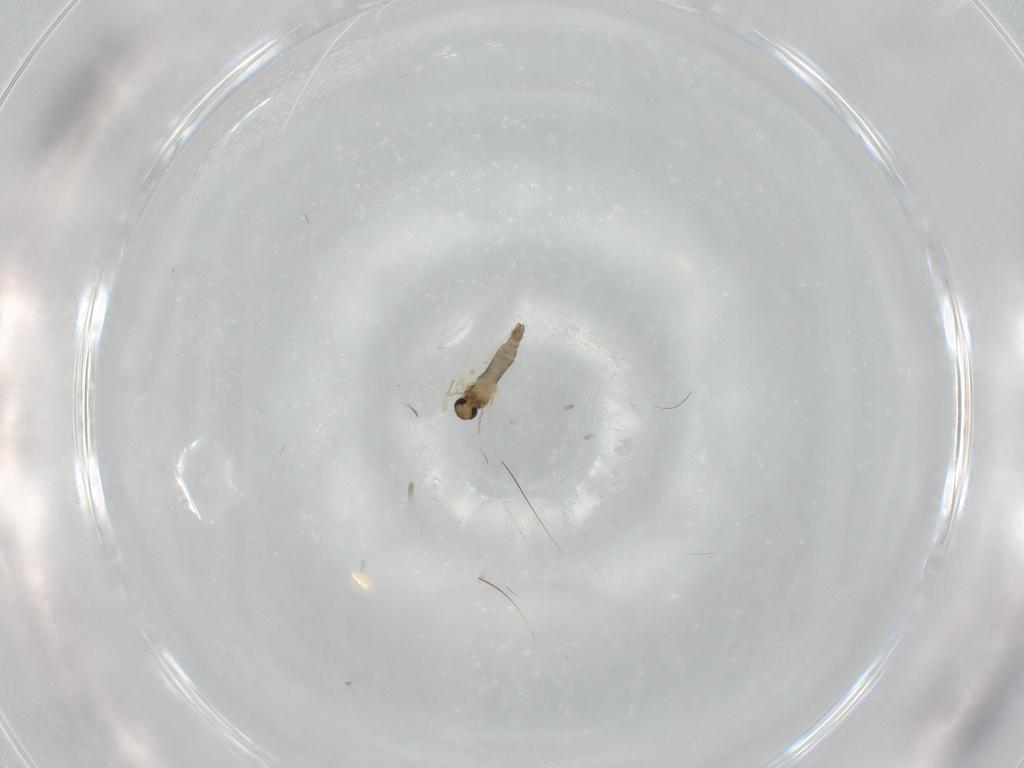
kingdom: Animalia
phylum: Arthropoda
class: Insecta
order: Diptera
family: Chironomidae
